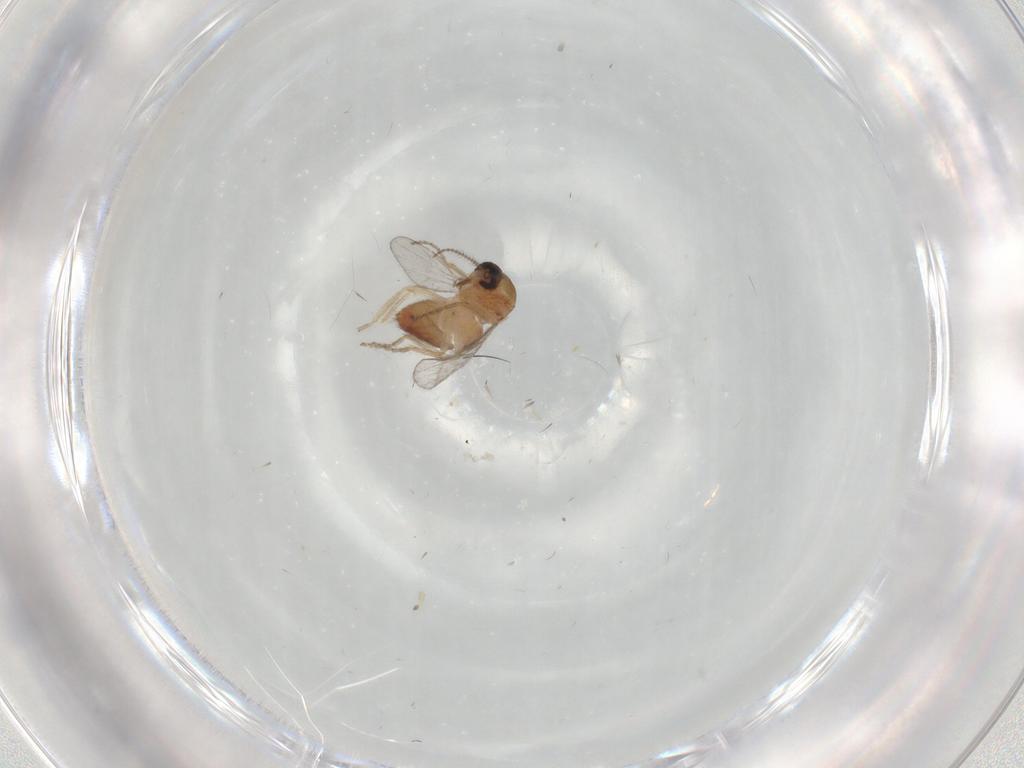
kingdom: Animalia
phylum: Arthropoda
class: Insecta
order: Diptera
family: Ceratopogonidae
